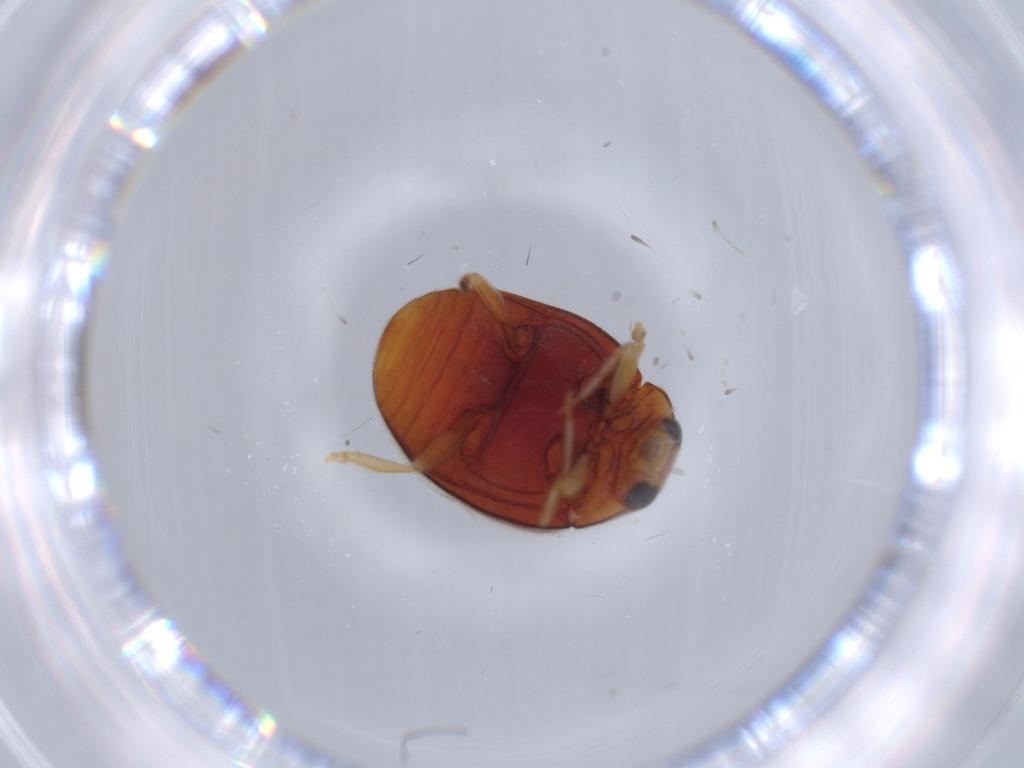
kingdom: Animalia
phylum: Arthropoda
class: Insecta
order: Coleoptera
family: Coccinellidae
